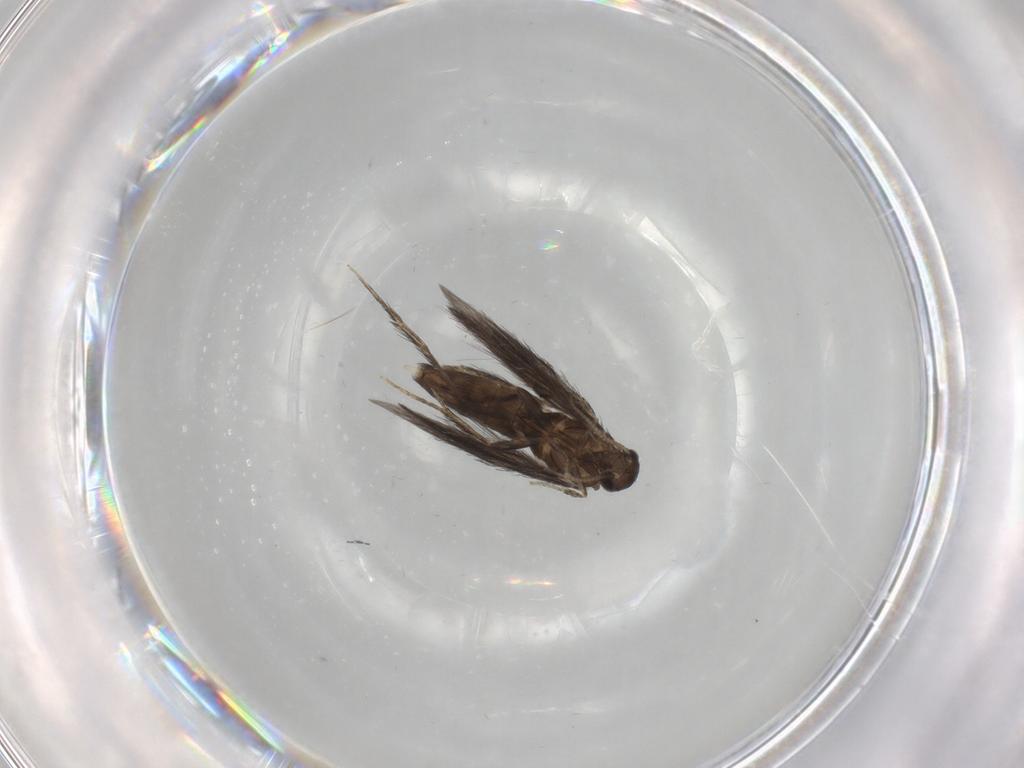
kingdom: Animalia
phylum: Arthropoda
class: Insecta
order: Trichoptera
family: Hydroptilidae
